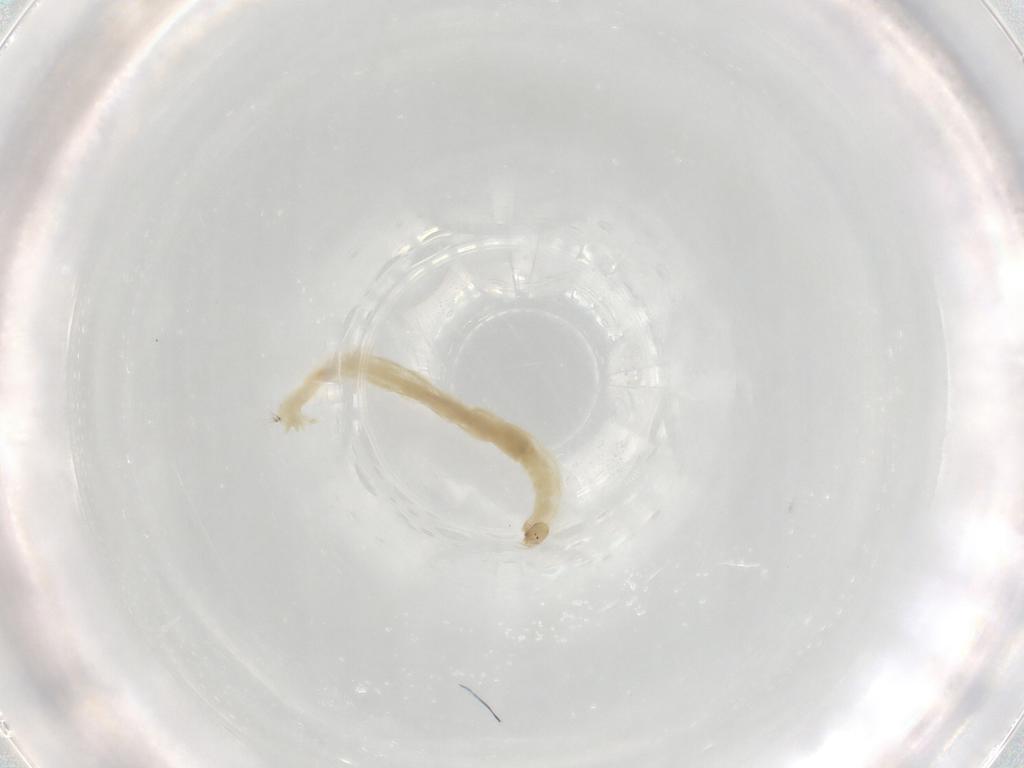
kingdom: Animalia
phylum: Arthropoda
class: Insecta
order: Diptera
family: Chironomidae
